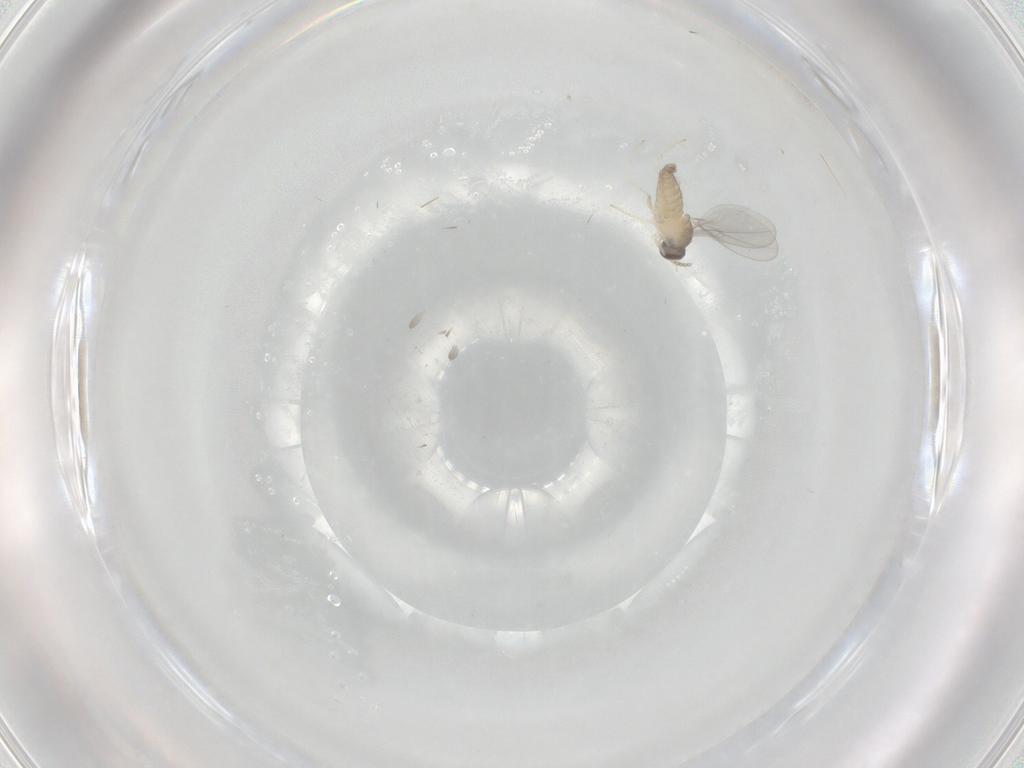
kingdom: Animalia
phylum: Arthropoda
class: Insecta
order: Diptera
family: Cecidomyiidae
